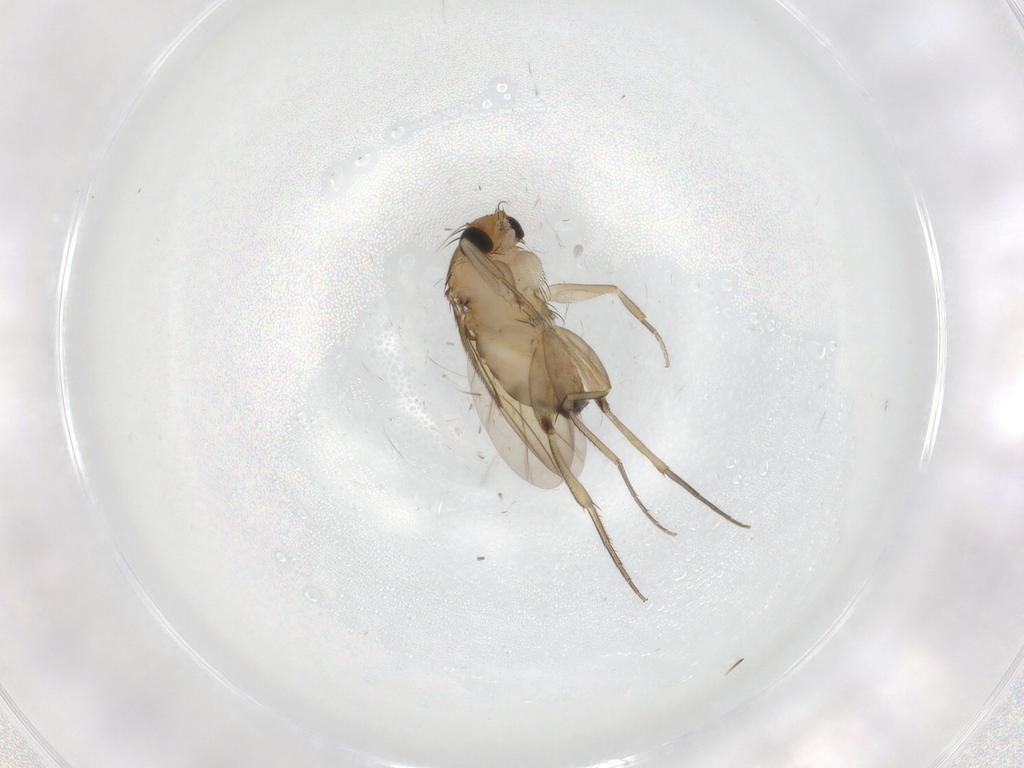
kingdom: Animalia
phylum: Arthropoda
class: Insecta
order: Diptera
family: Phoridae
